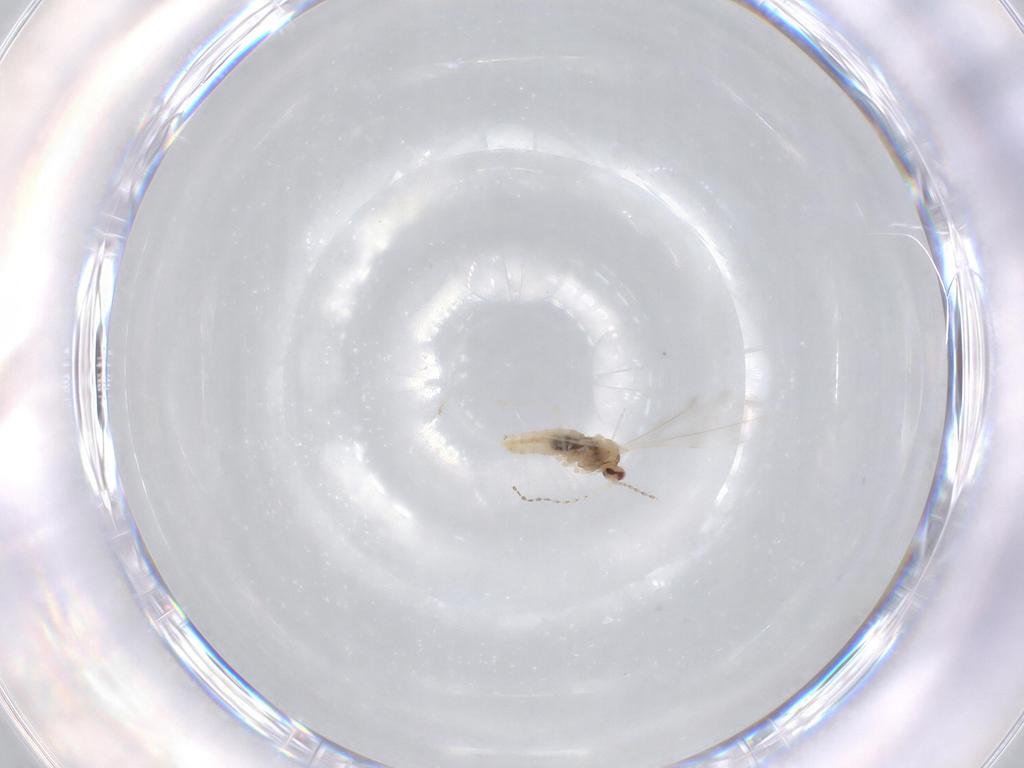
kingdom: Animalia
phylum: Arthropoda
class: Insecta
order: Diptera
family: Cecidomyiidae
